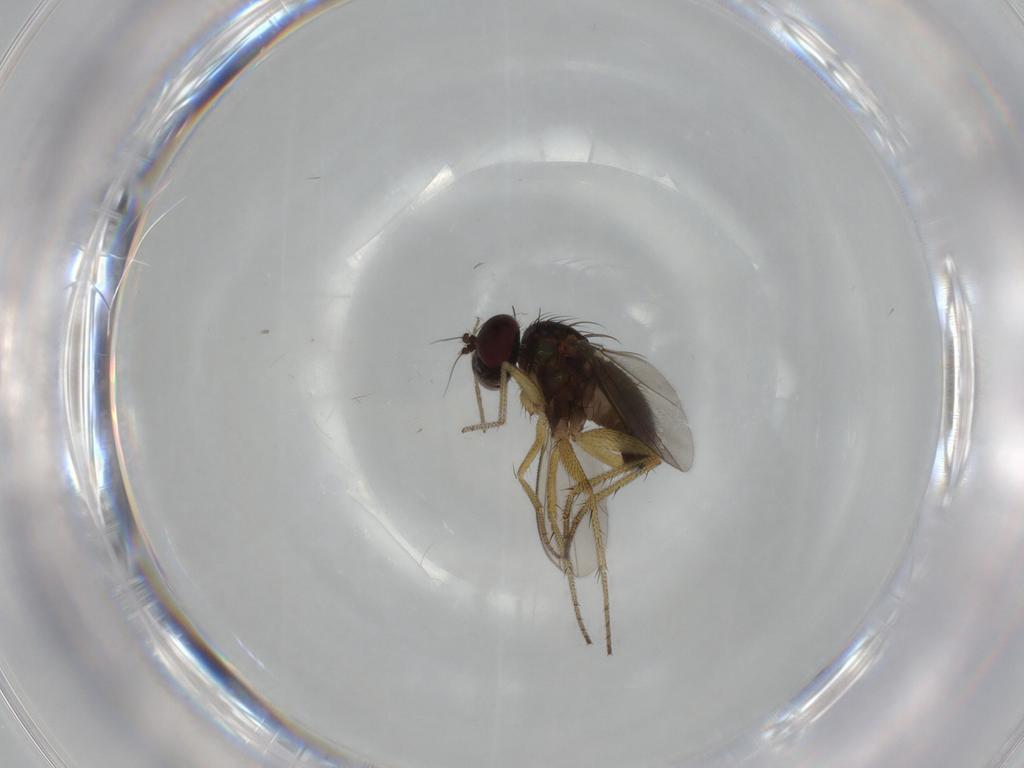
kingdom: Animalia
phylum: Arthropoda
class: Insecta
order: Diptera
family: Dolichopodidae
